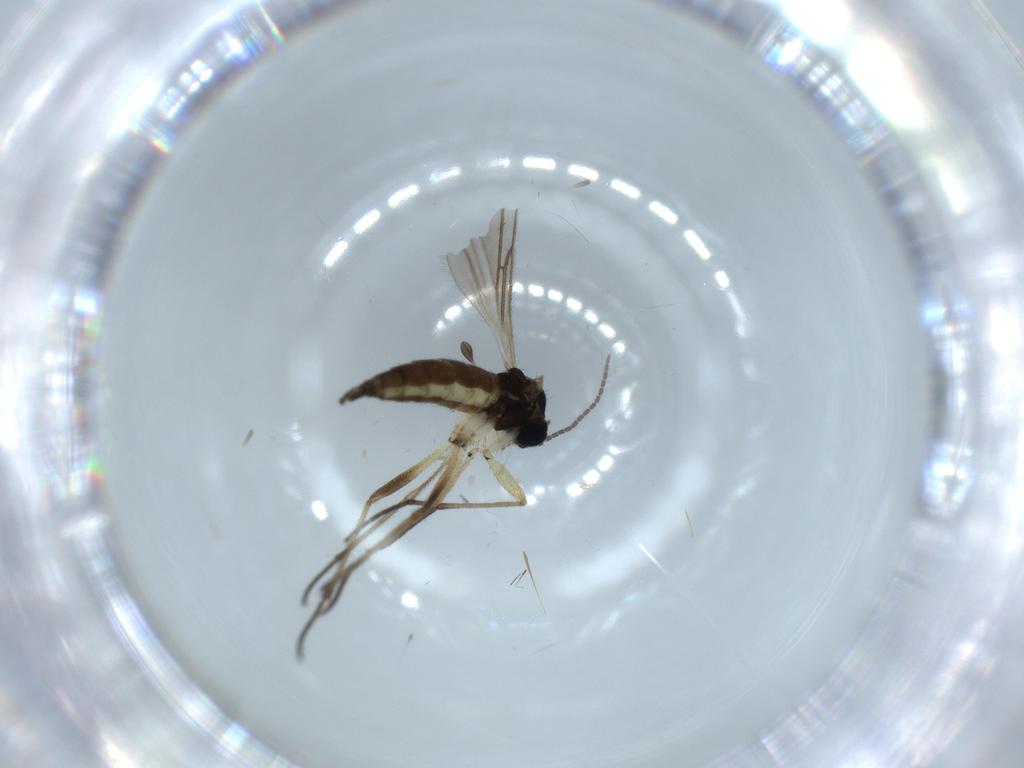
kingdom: Animalia
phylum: Arthropoda
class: Insecta
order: Diptera
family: Sciaridae
